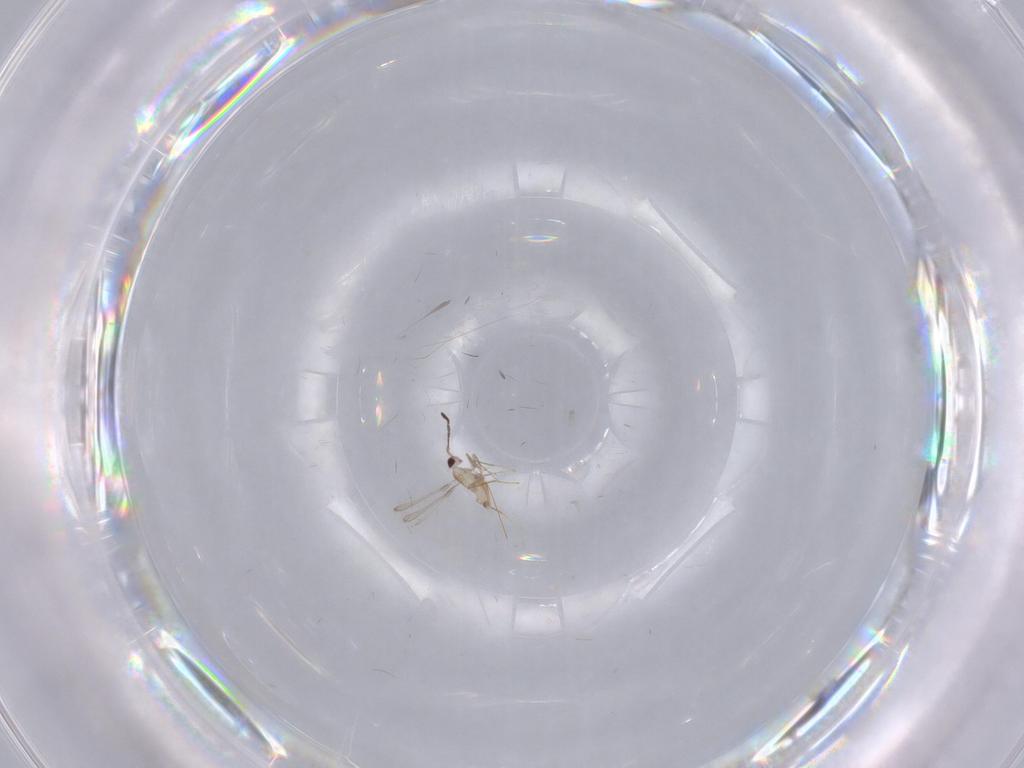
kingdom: Animalia
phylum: Arthropoda
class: Insecta
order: Hymenoptera
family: Mymaridae
